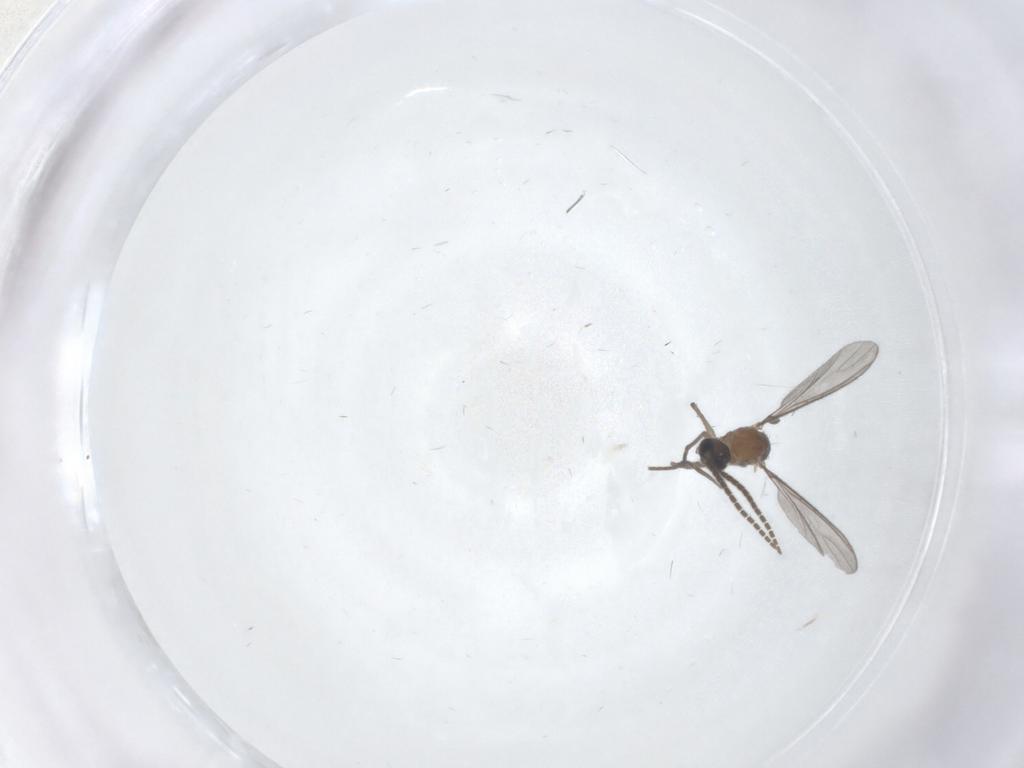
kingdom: Animalia
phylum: Arthropoda
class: Insecta
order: Diptera
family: Sciaridae
